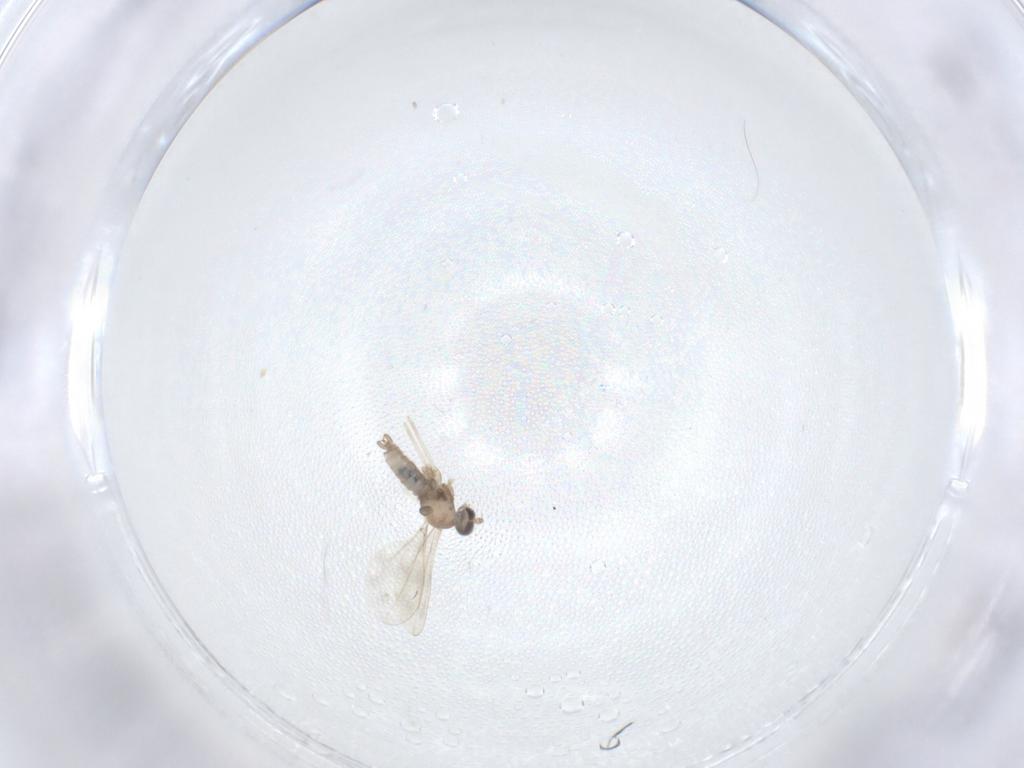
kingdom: Animalia
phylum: Arthropoda
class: Insecta
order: Diptera
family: Cecidomyiidae
